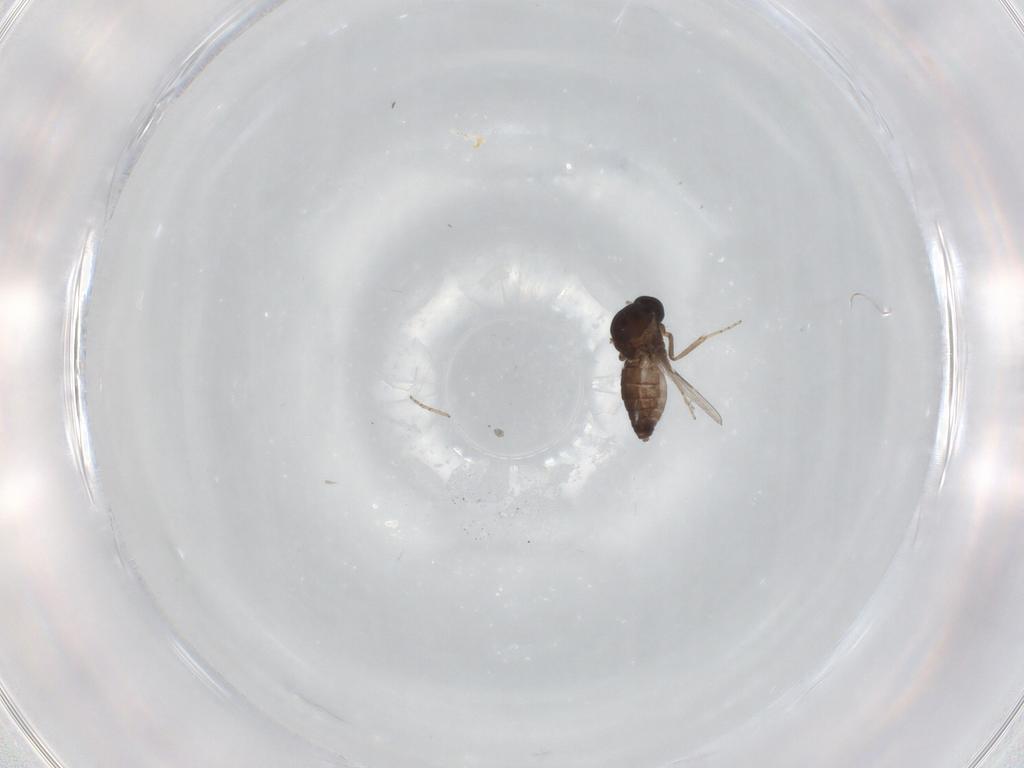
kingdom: Animalia
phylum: Arthropoda
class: Insecta
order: Diptera
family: Ceratopogonidae
